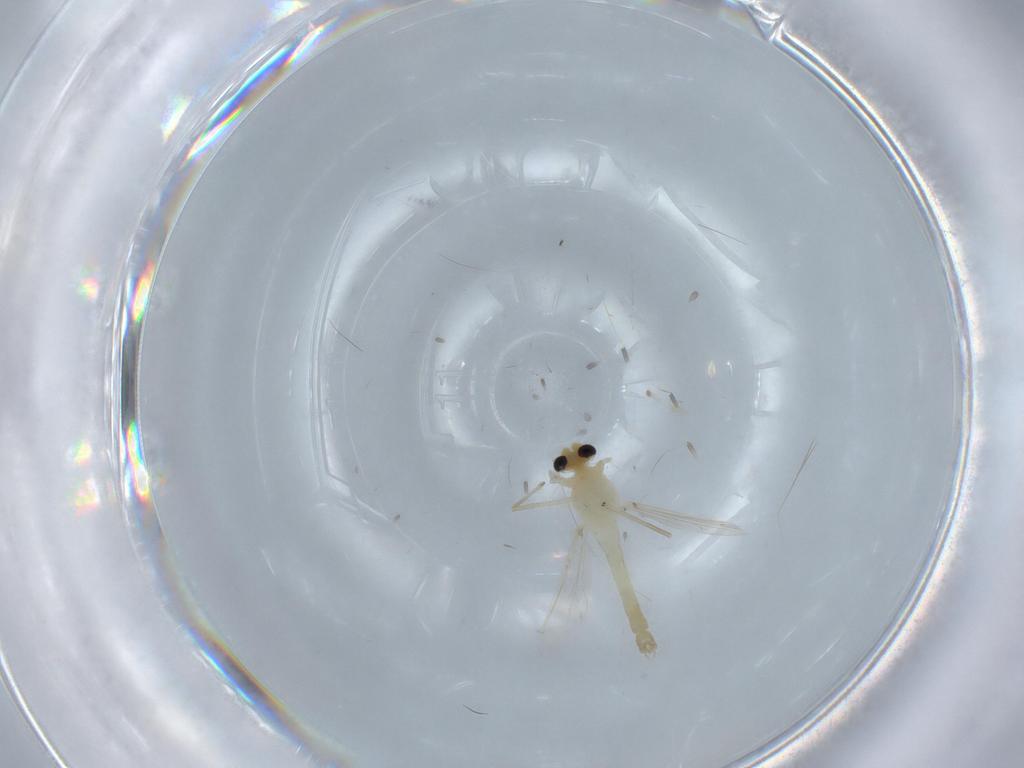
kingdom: Animalia
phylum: Arthropoda
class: Insecta
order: Diptera
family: Chironomidae
